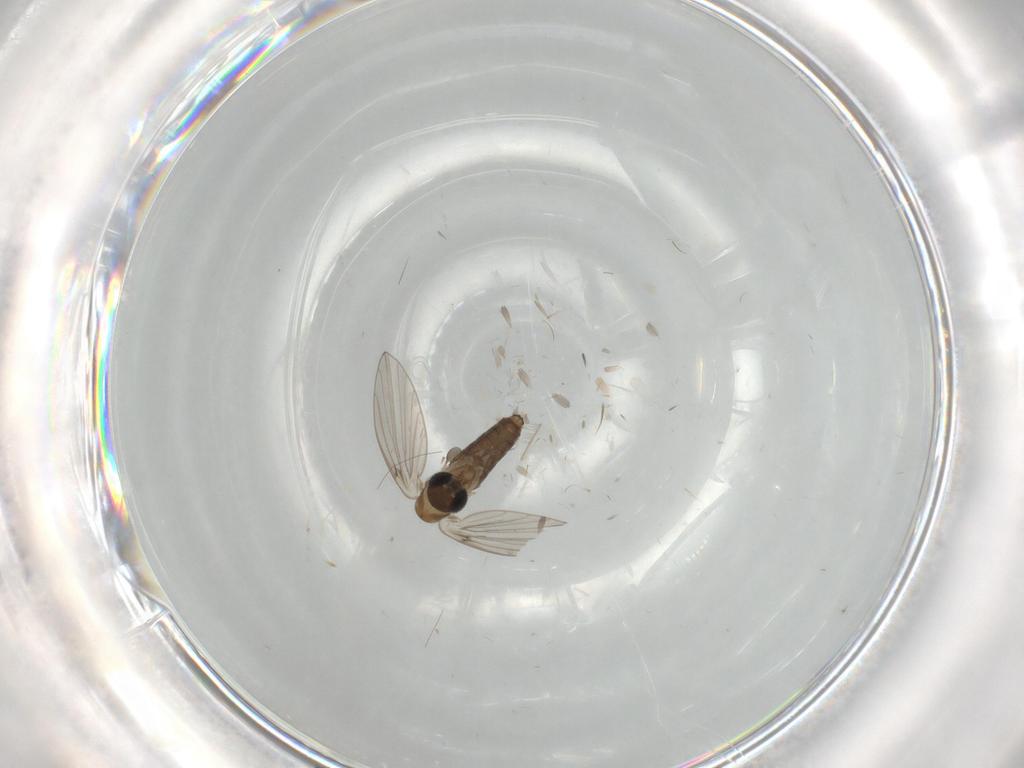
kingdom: Animalia
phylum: Arthropoda
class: Insecta
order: Diptera
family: Limoniidae
